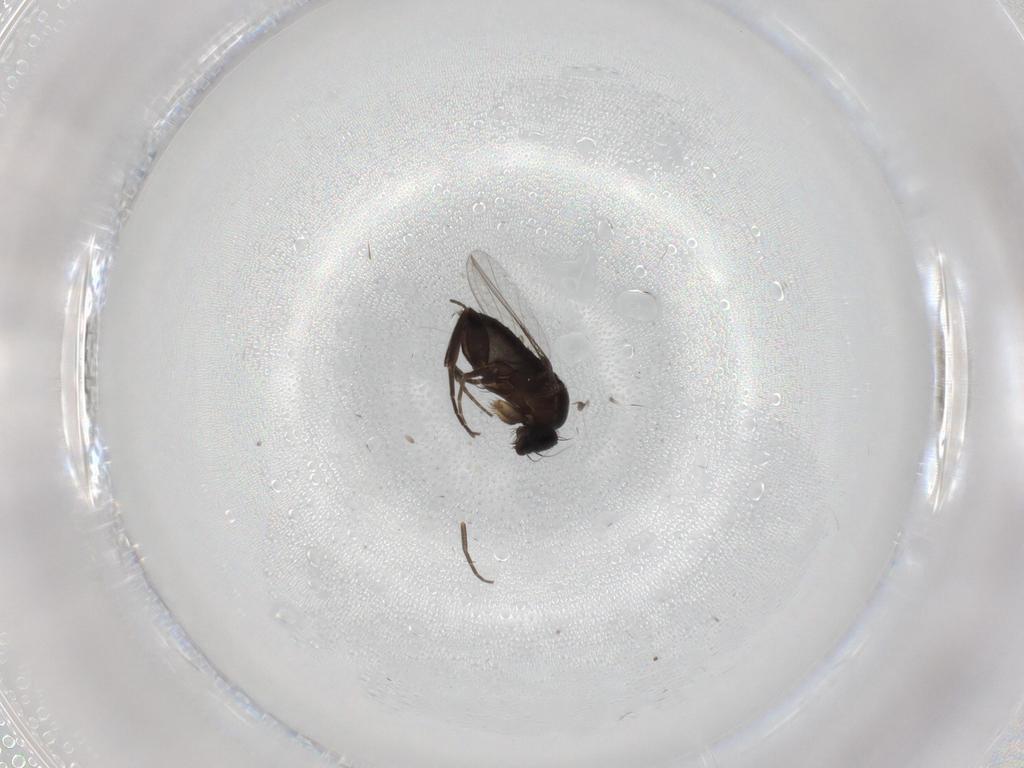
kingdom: Animalia
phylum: Arthropoda
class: Insecta
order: Diptera
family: Phoridae
